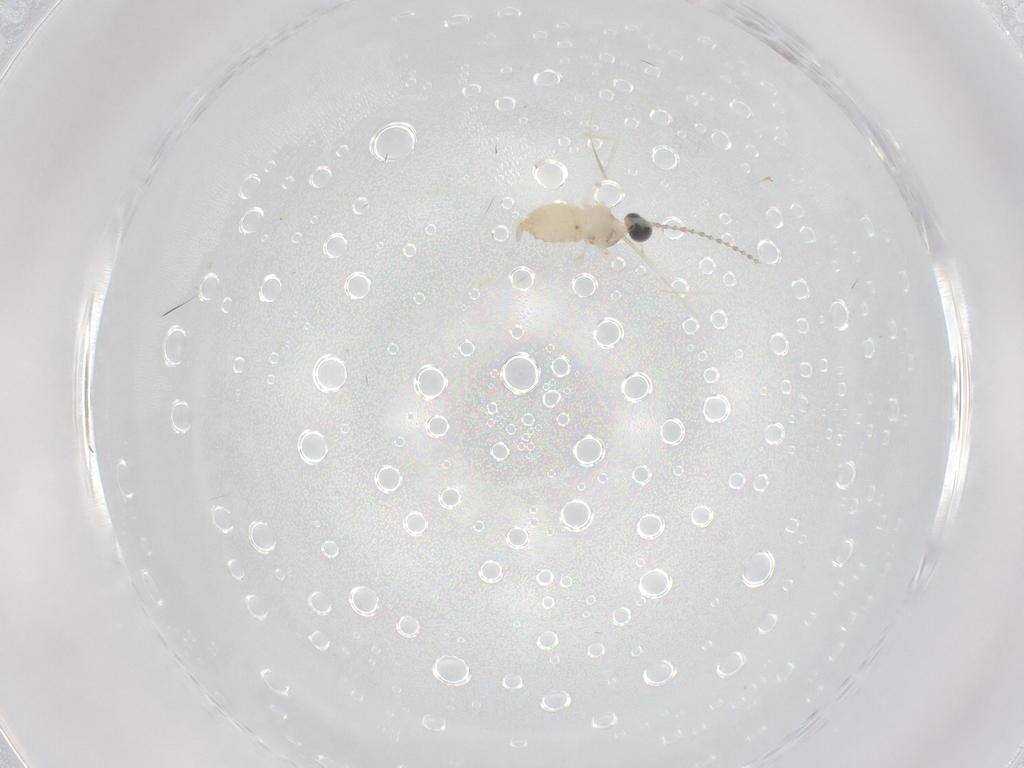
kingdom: Animalia
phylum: Arthropoda
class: Insecta
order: Diptera
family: Cecidomyiidae
